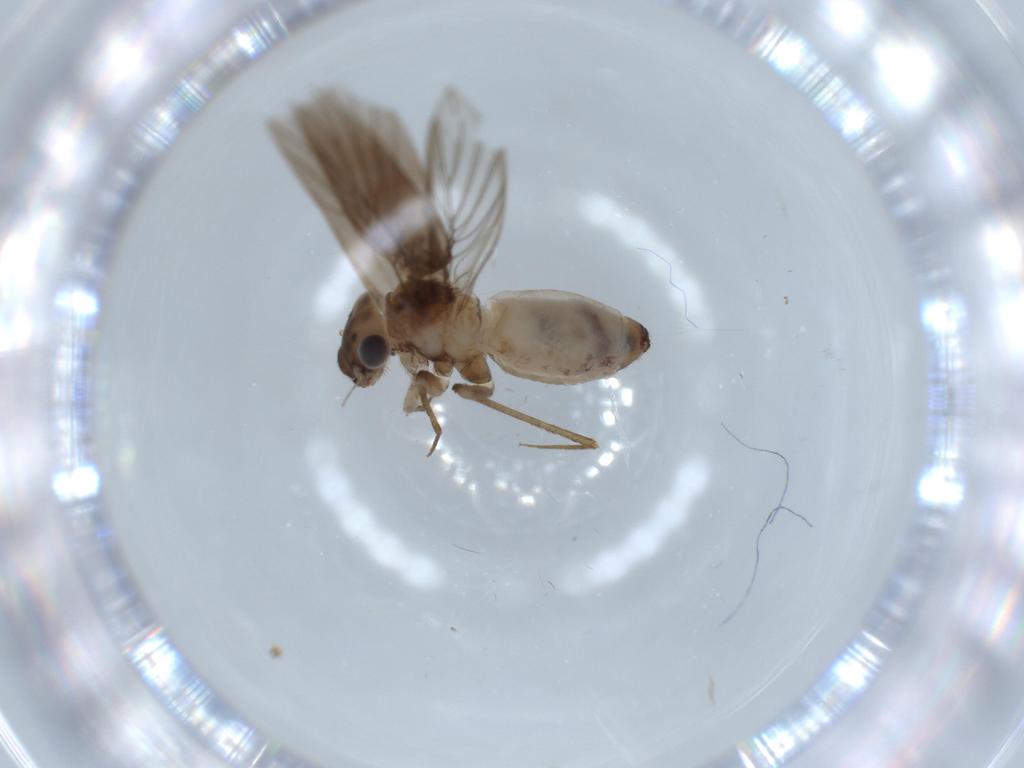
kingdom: Animalia
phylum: Arthropoda
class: Insecta
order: Psocodea
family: Lepidopsocidae
